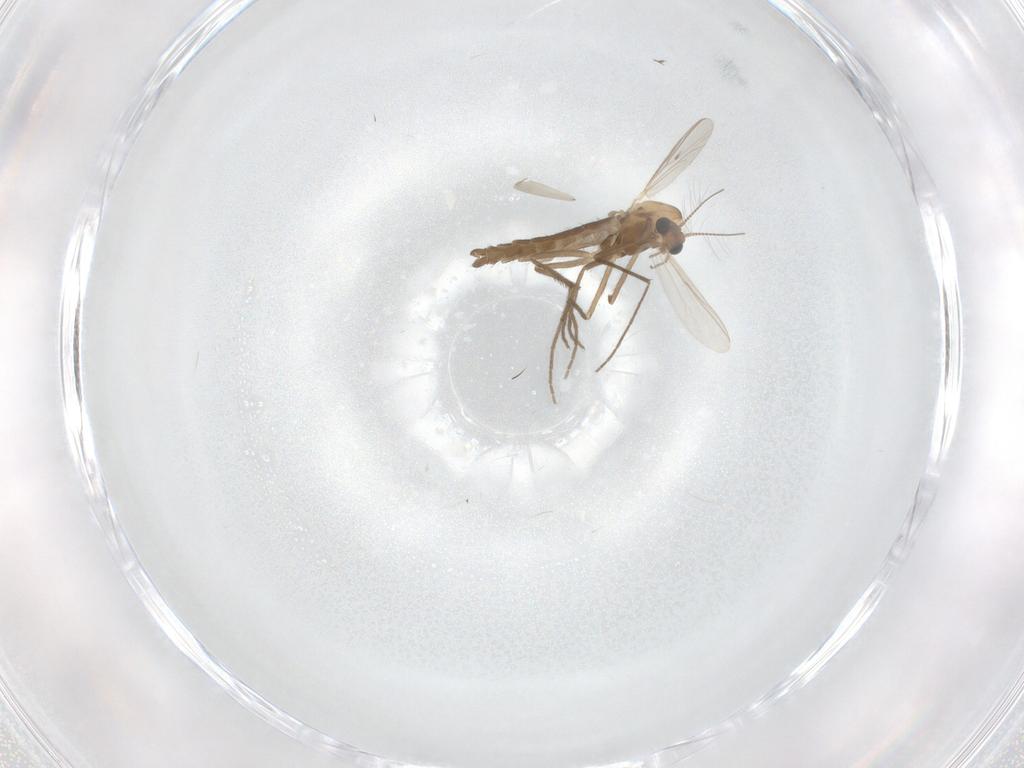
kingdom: Animalia
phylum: Arthropoda
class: Insecta
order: Diptera
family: Chironomidae
